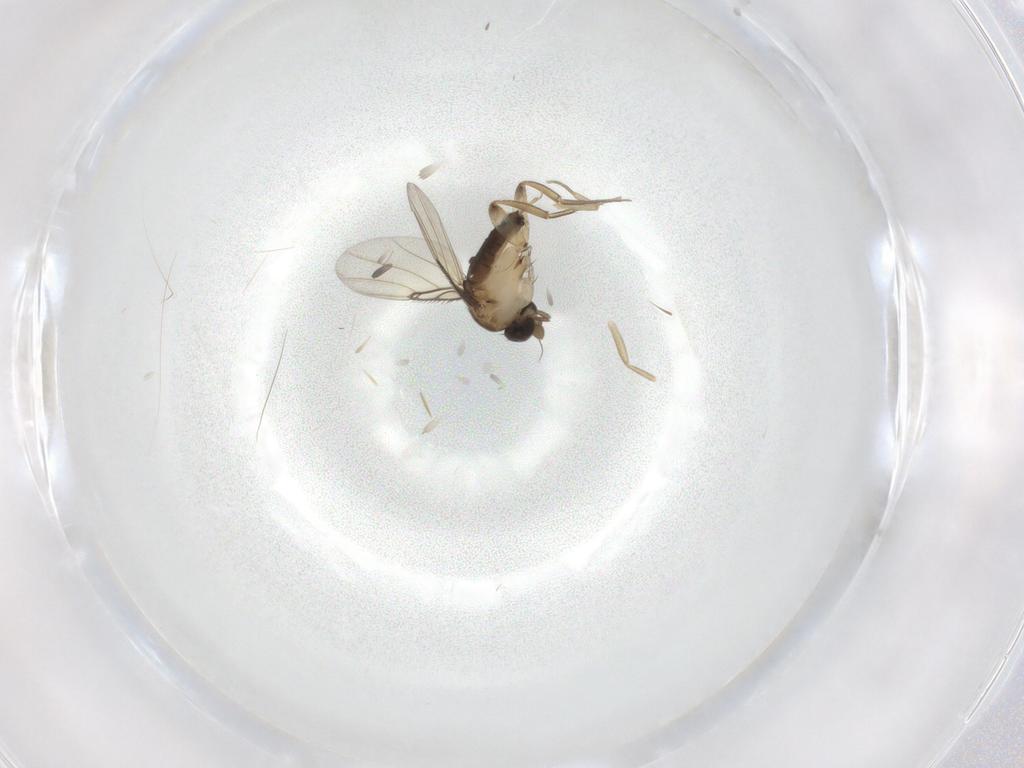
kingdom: Animalia
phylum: Arthropoda
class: Insecta
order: Diptera
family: Phoridae
